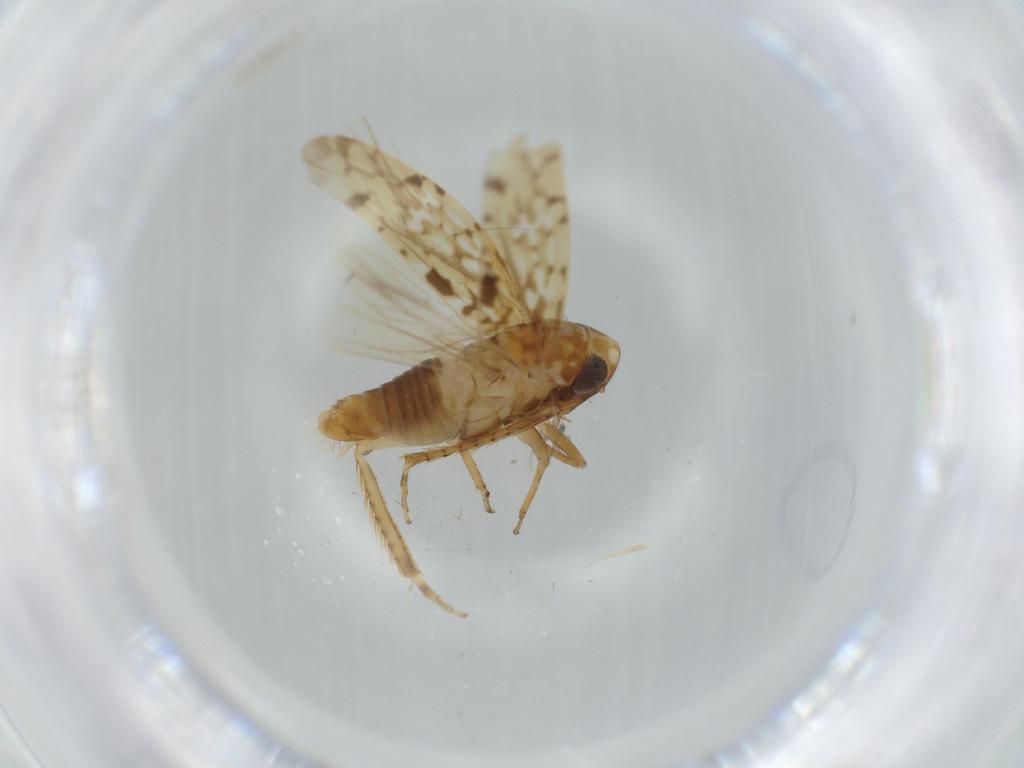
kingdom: Animalia
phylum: Arthropoda
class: Insecta
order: Hemiptera
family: Cicadellidae
